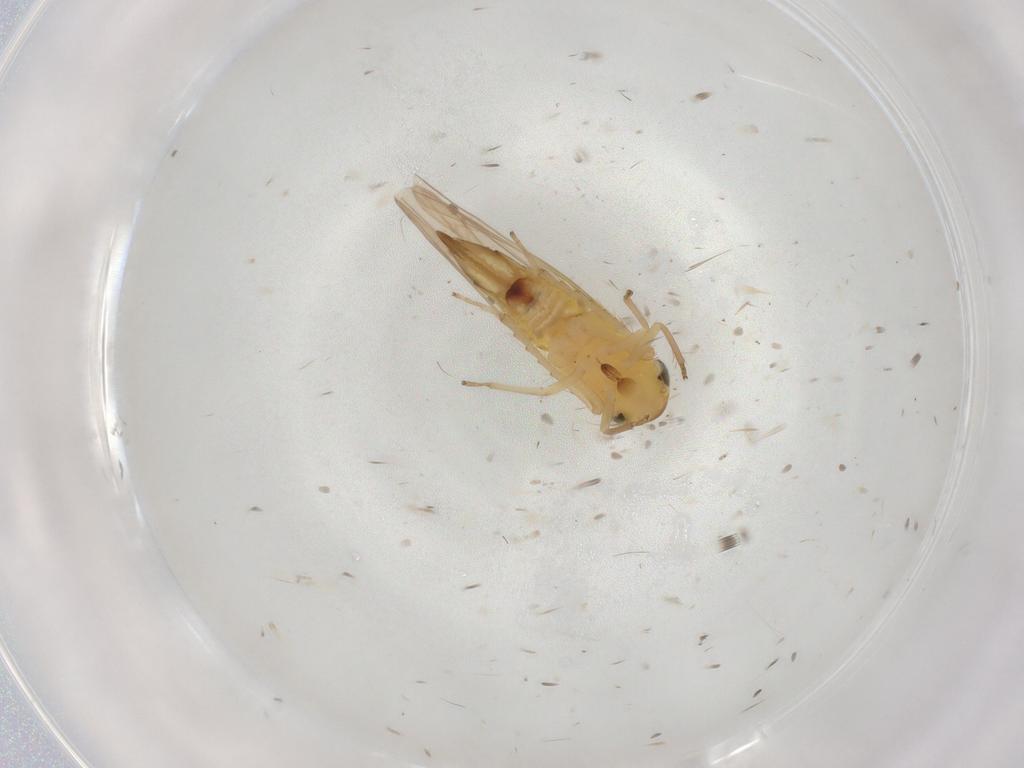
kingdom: Animalia
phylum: Arthropoda
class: Insecta
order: Hemiptera
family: Cicadellidae
